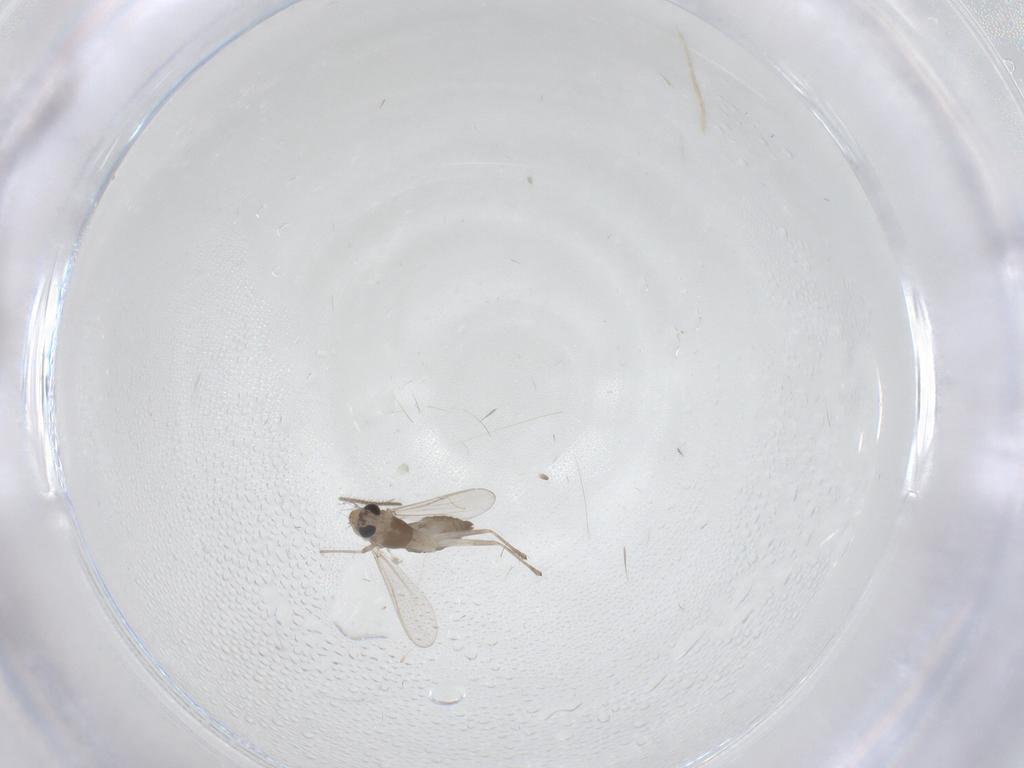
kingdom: Animalia
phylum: Arthropoda
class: Insecta
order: Diptera
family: Chironomidae
